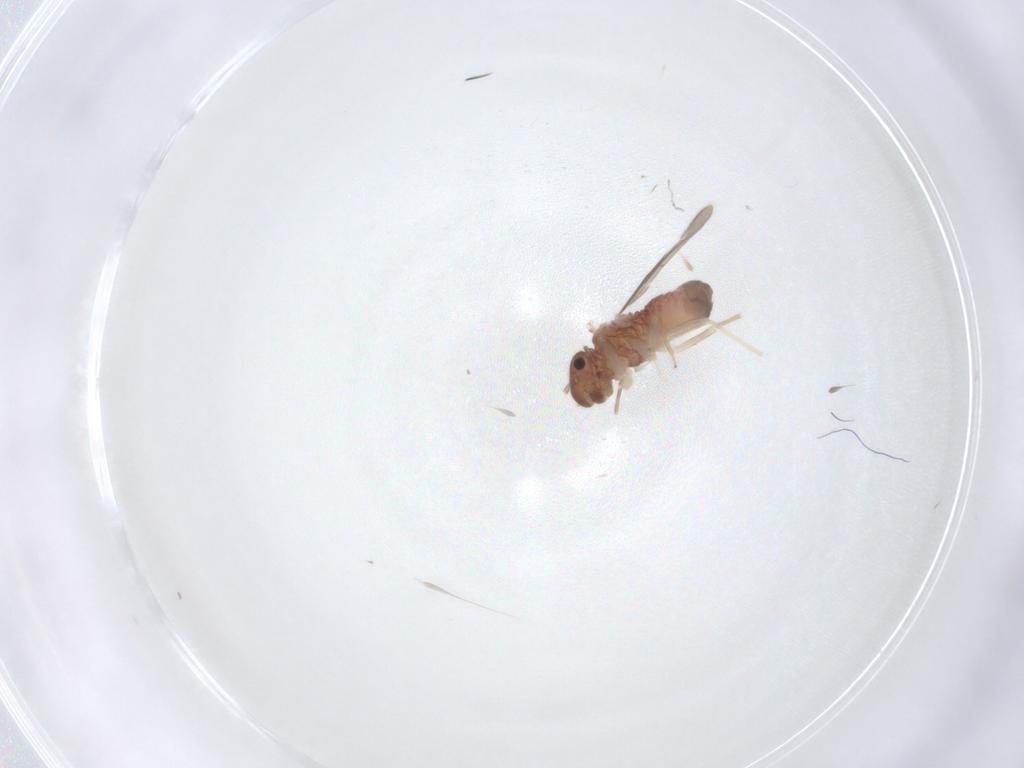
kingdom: Animalia
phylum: Arthropoda
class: Insecta
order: Psocodea
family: Archipsocidae
